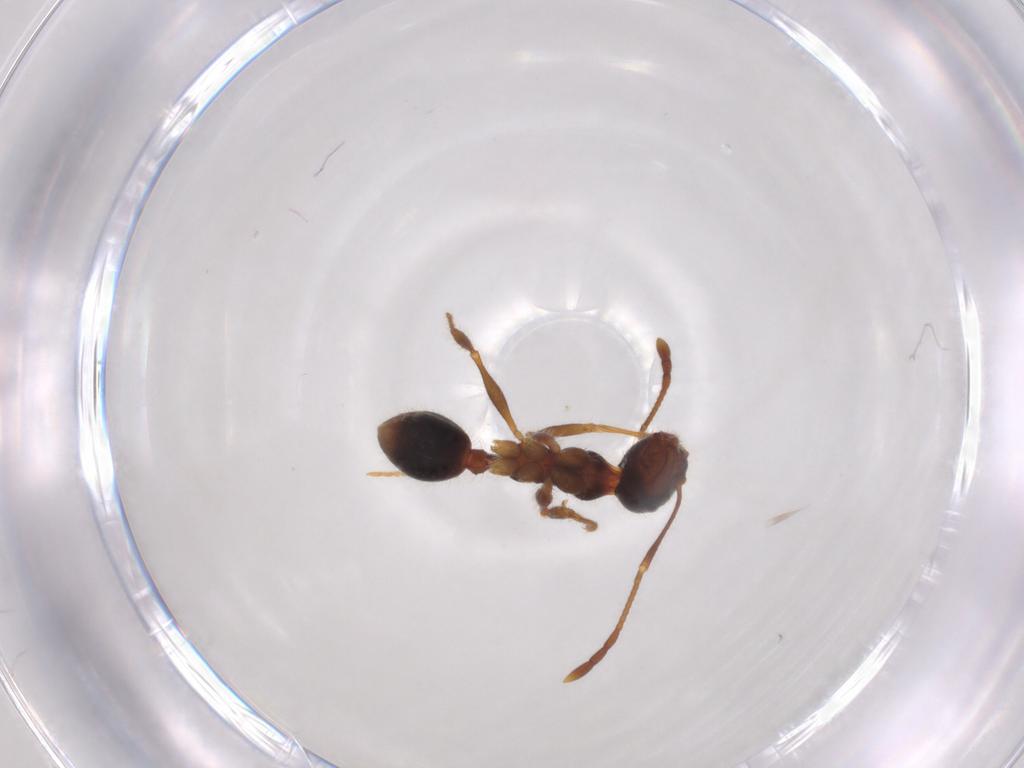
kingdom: Animalia
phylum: Arthropoda
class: Insecta
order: Hymenoptera
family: Formicidae
